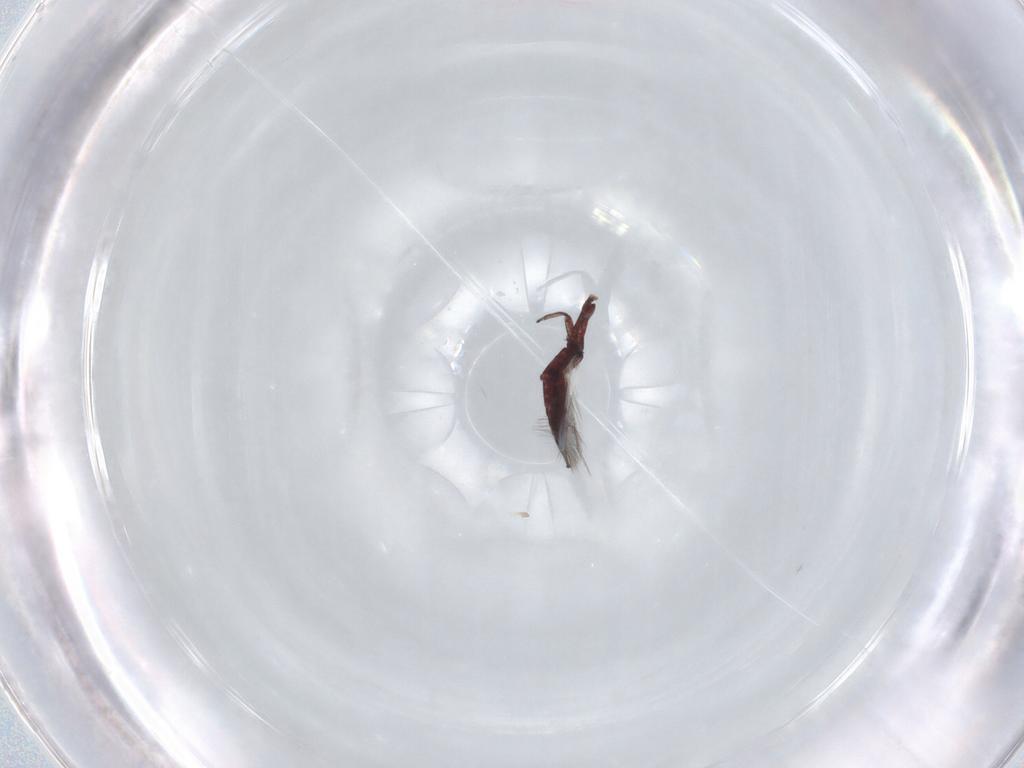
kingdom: Animalia
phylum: Arthropoda
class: Insecta
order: Thysanoptera
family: Phlaeothripidae
